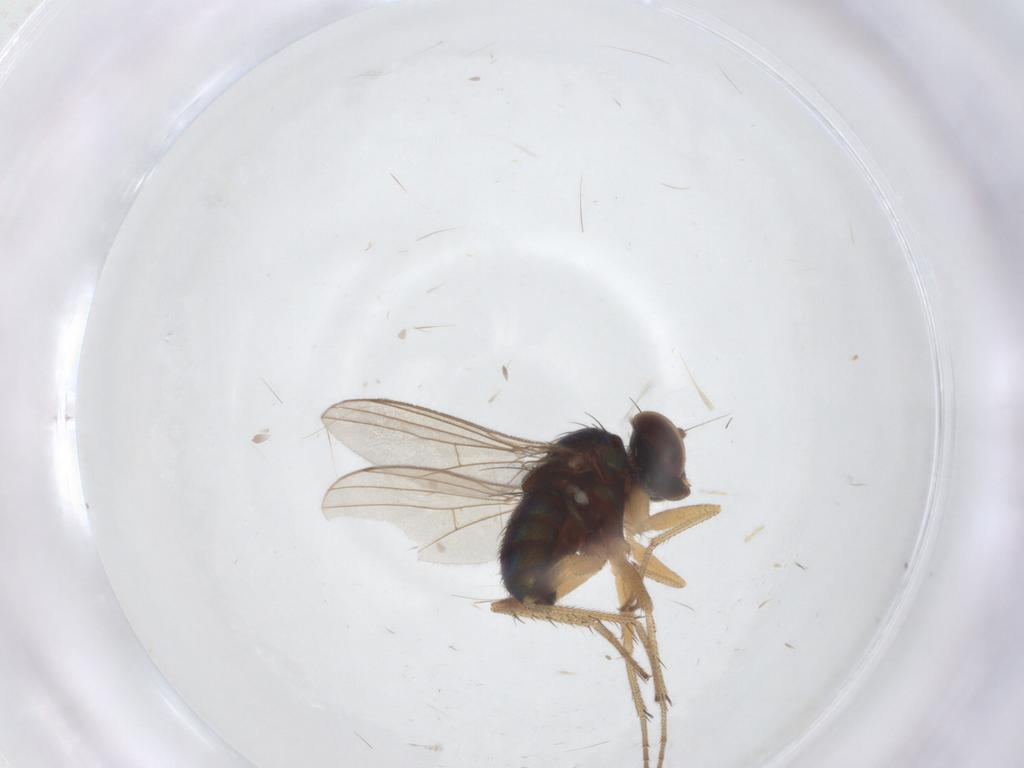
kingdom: Animalia
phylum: Arthropoda
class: Insecta
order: Diptera
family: Dolichopodidae
